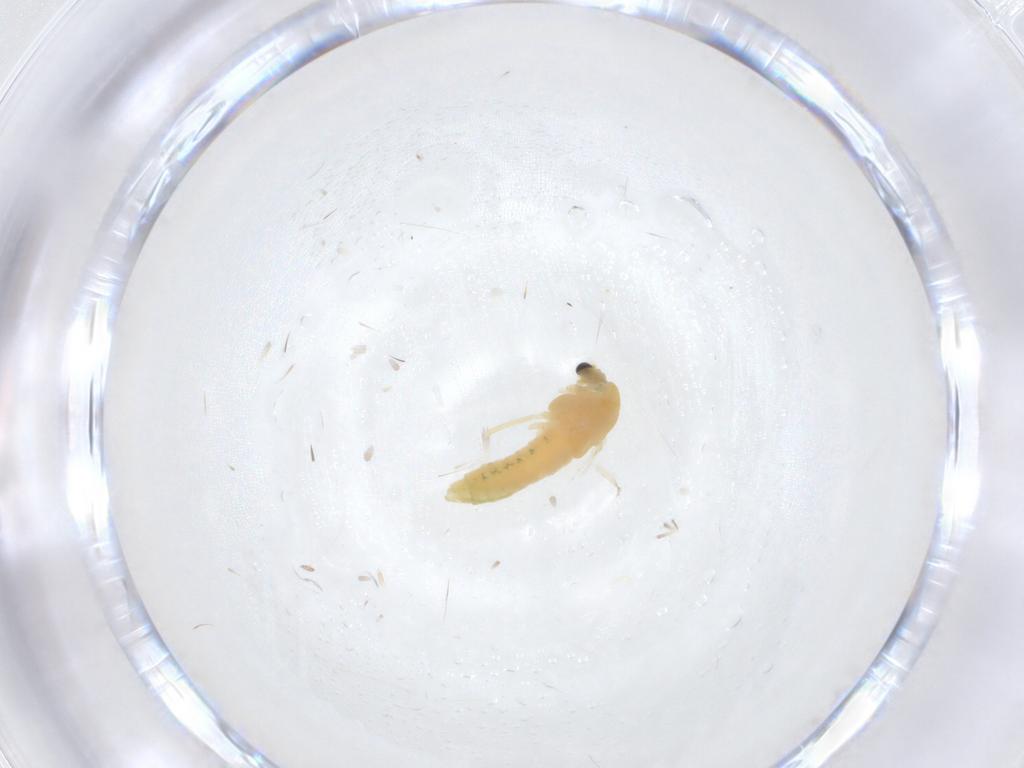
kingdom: Animalia
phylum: Arthropoda
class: Insecta
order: Diptera
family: Chironomidae
